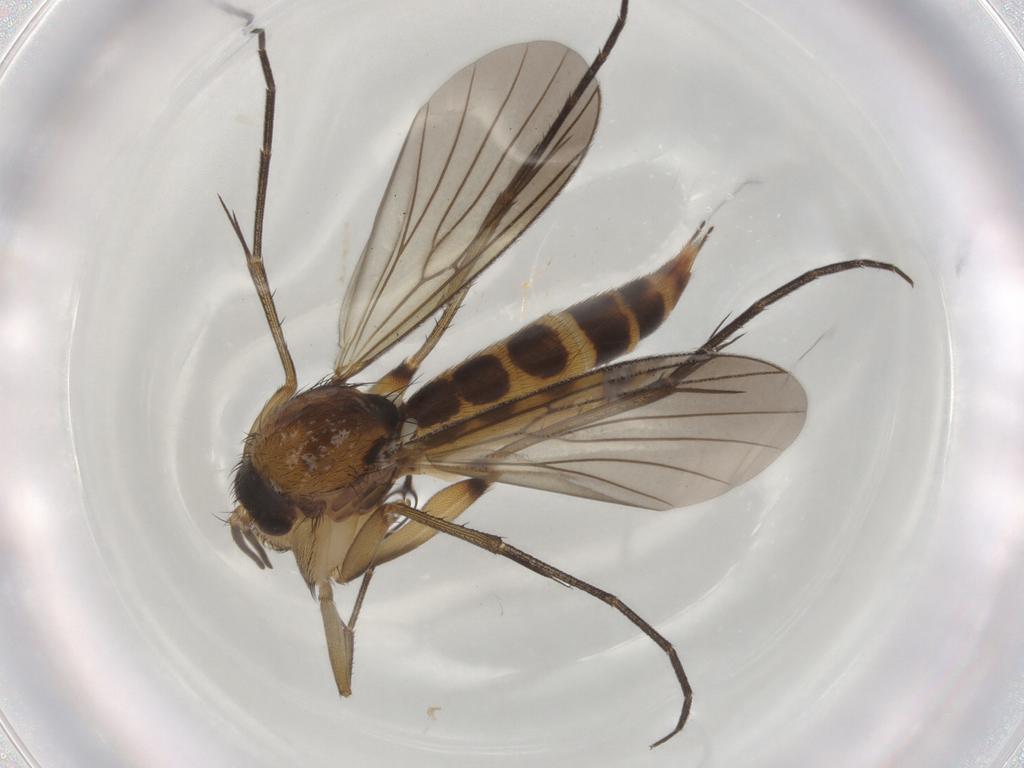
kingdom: Animalia
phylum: Arthropoda
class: Insecta
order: Diptera
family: Mycetophilidae
